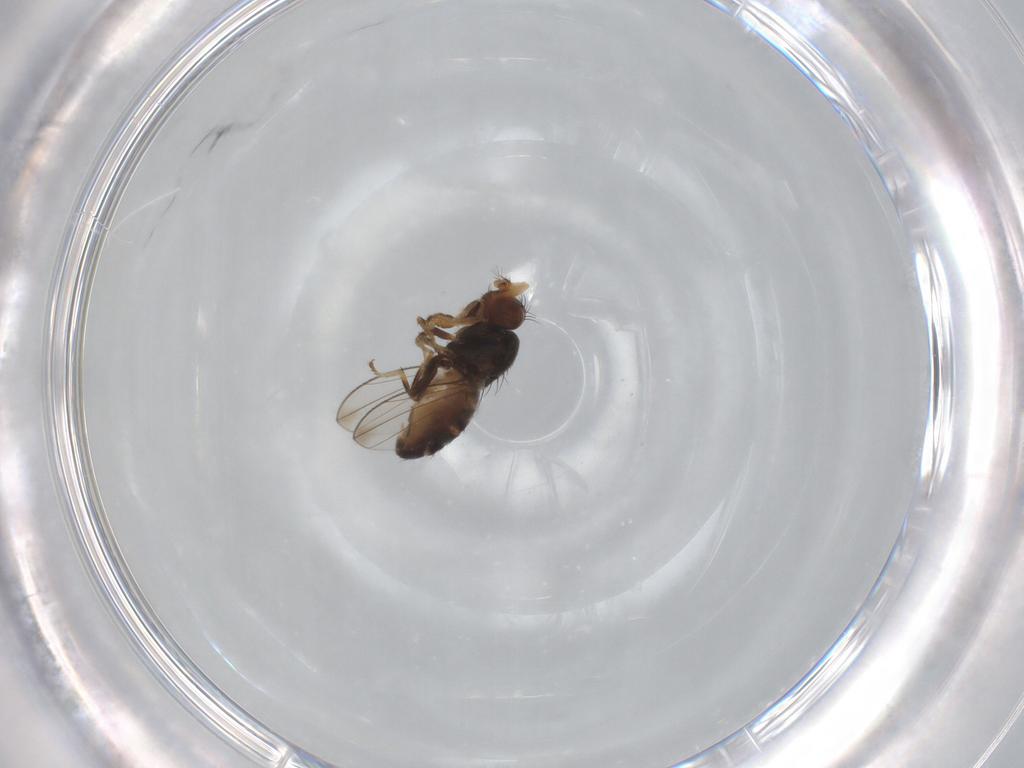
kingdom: Animalia
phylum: Arthropoda
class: Insecta
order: Diptera
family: Ephydridae
